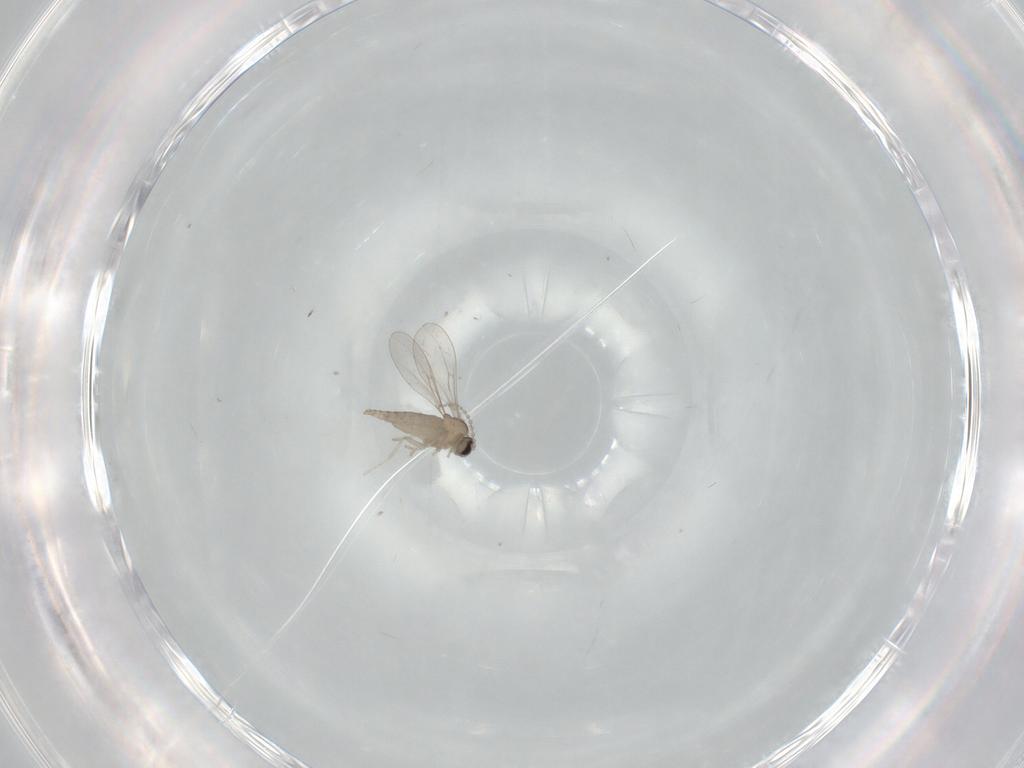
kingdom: Animalia
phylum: Arthropoda
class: Insecta
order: Diptera
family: Cecidomyiidae
